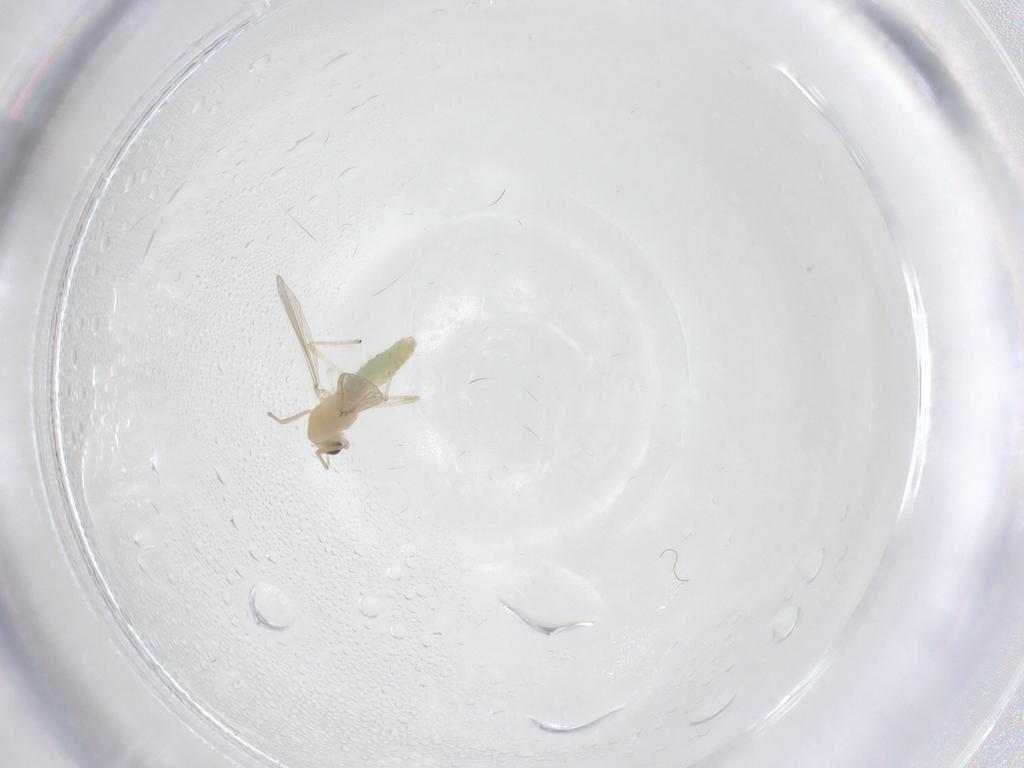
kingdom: Animalia
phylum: Arthropoda
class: Insecta
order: Diptera
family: Chironomidae
